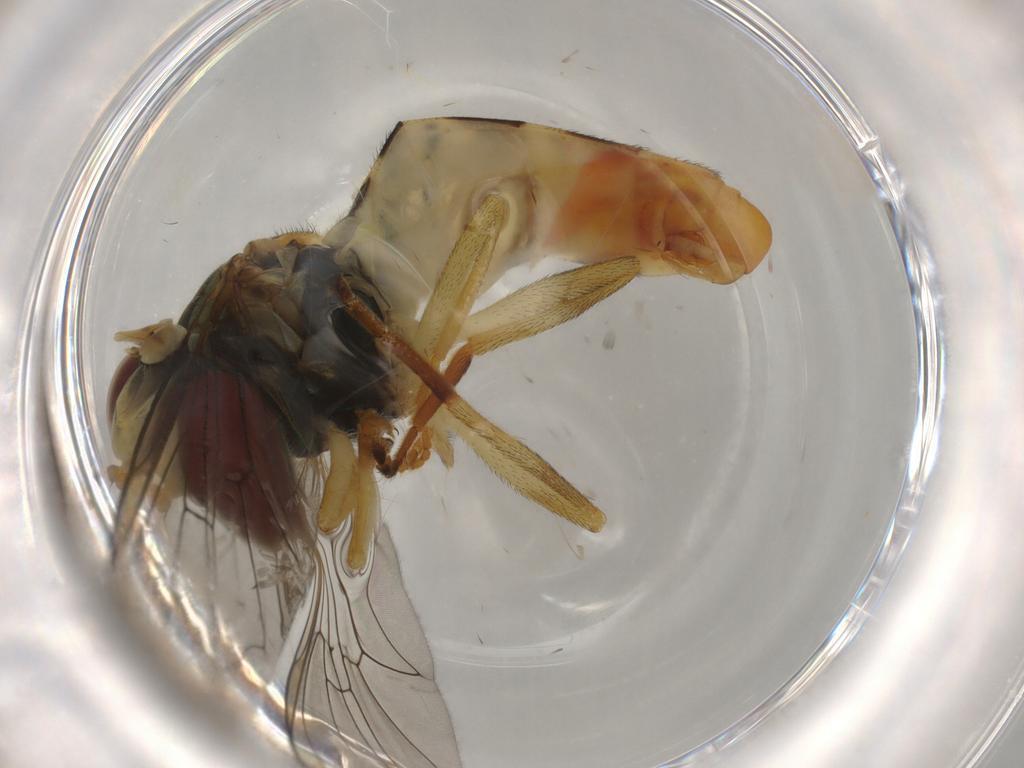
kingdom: Animalia
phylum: Arthropoda
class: Insecta
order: Diptera
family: Syrphidae
